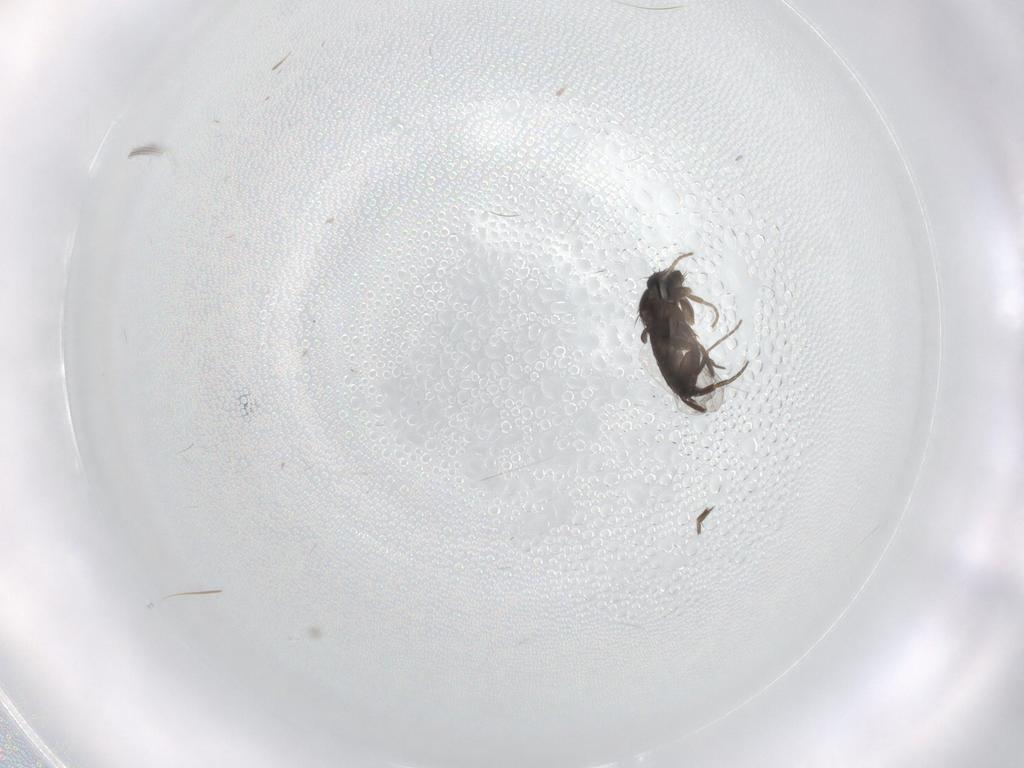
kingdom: Animalia
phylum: Arthropoda
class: Insecta
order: Diptera
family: Phoridae
